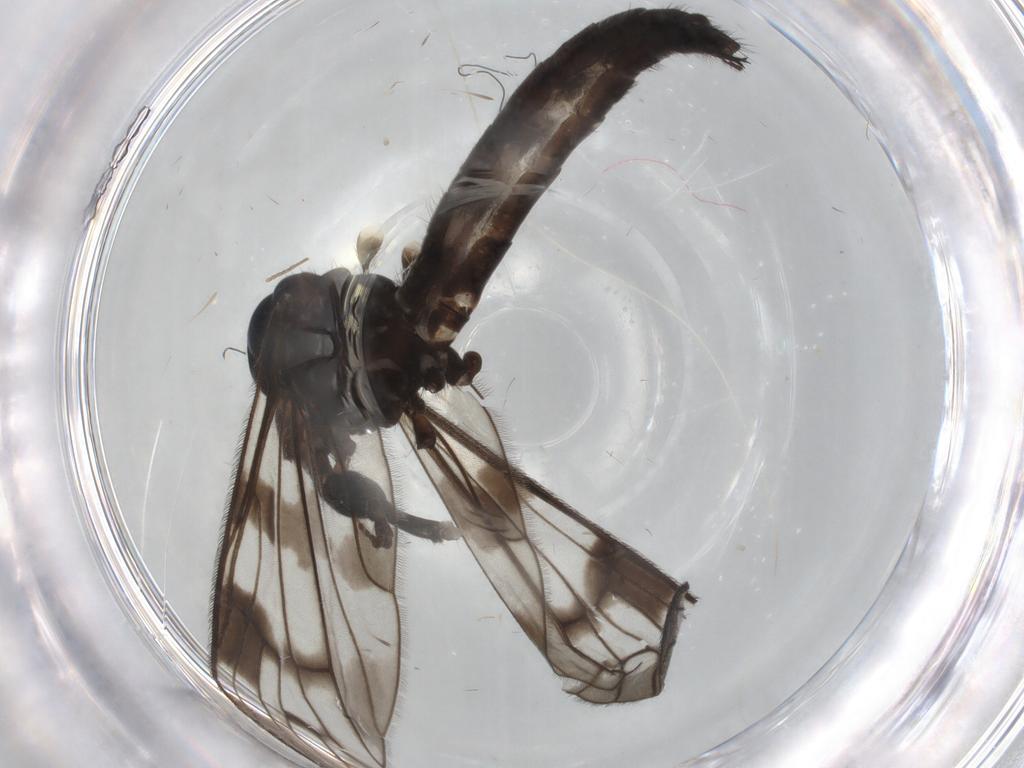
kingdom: Animalia
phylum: Arthropoda
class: Insecta
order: Diptera
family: Limoniidae
